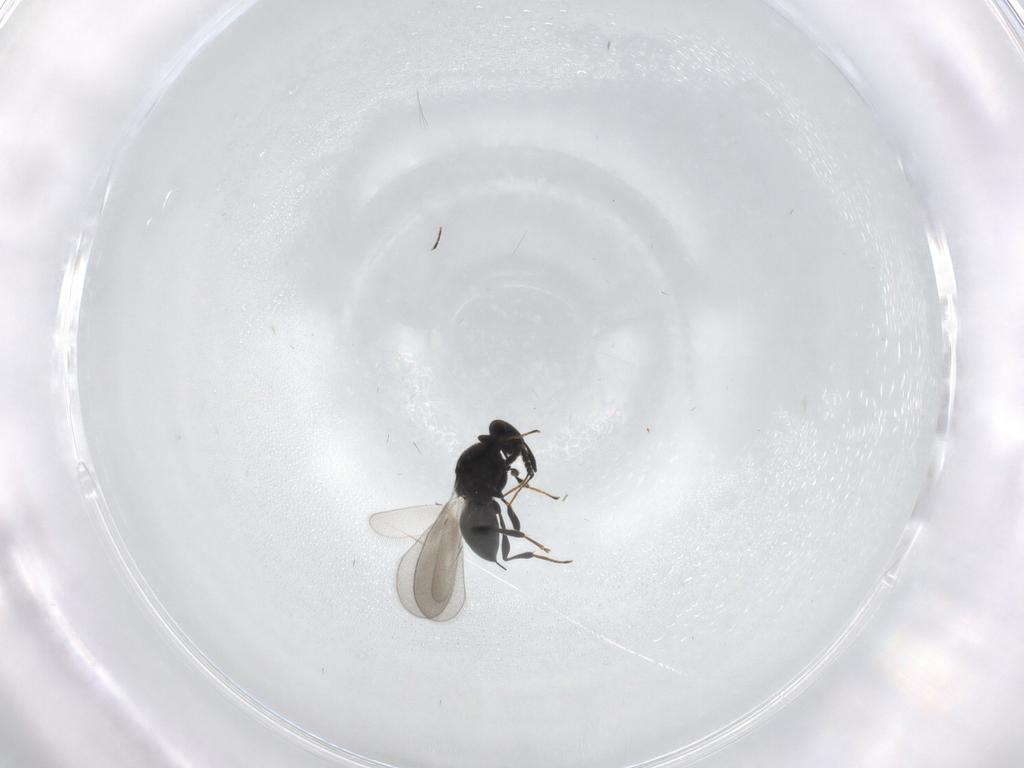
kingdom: Animalia
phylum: Arthropoda
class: Insecta
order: Hymenoptera
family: Platygastridae
